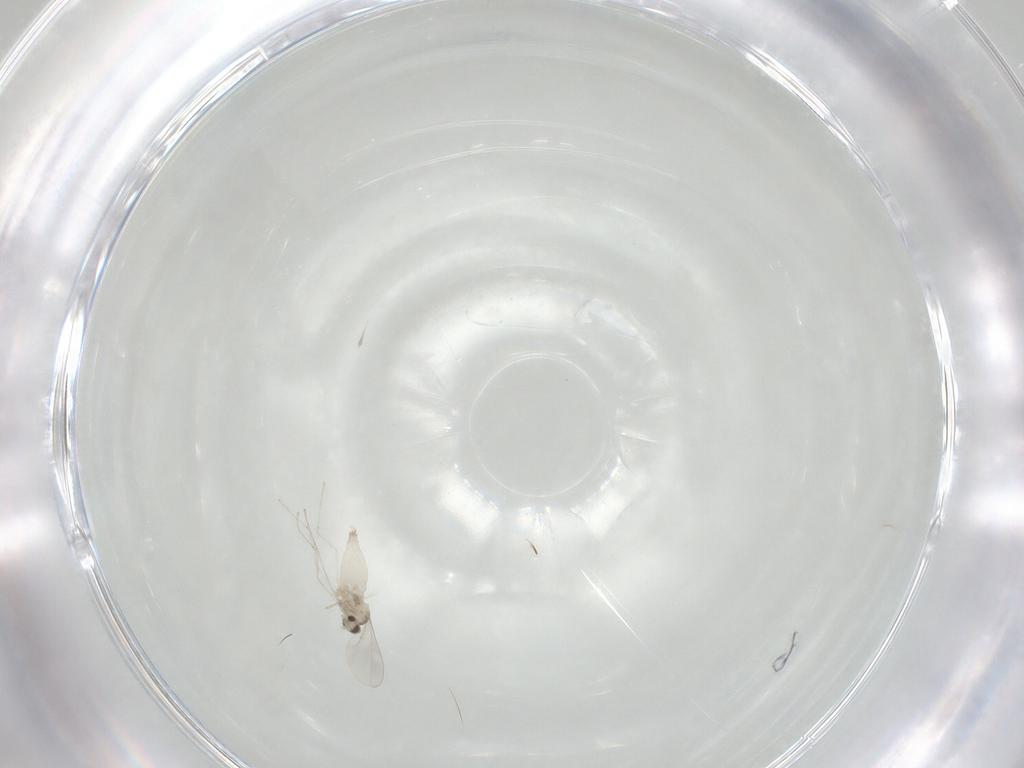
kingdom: Animalia
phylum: Arthropoda
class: Insecta
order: Diptera
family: Cecidomyiidae
